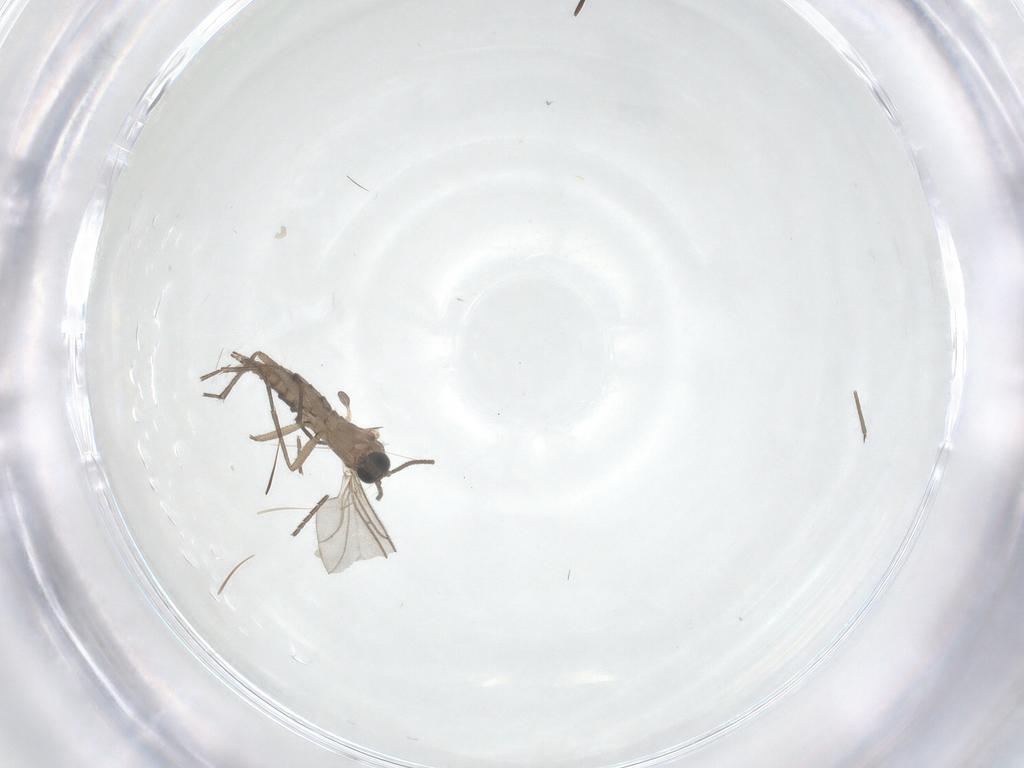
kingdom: Animalia
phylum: Arthropoda
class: Insecta
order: Diptera
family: Sciaridae
